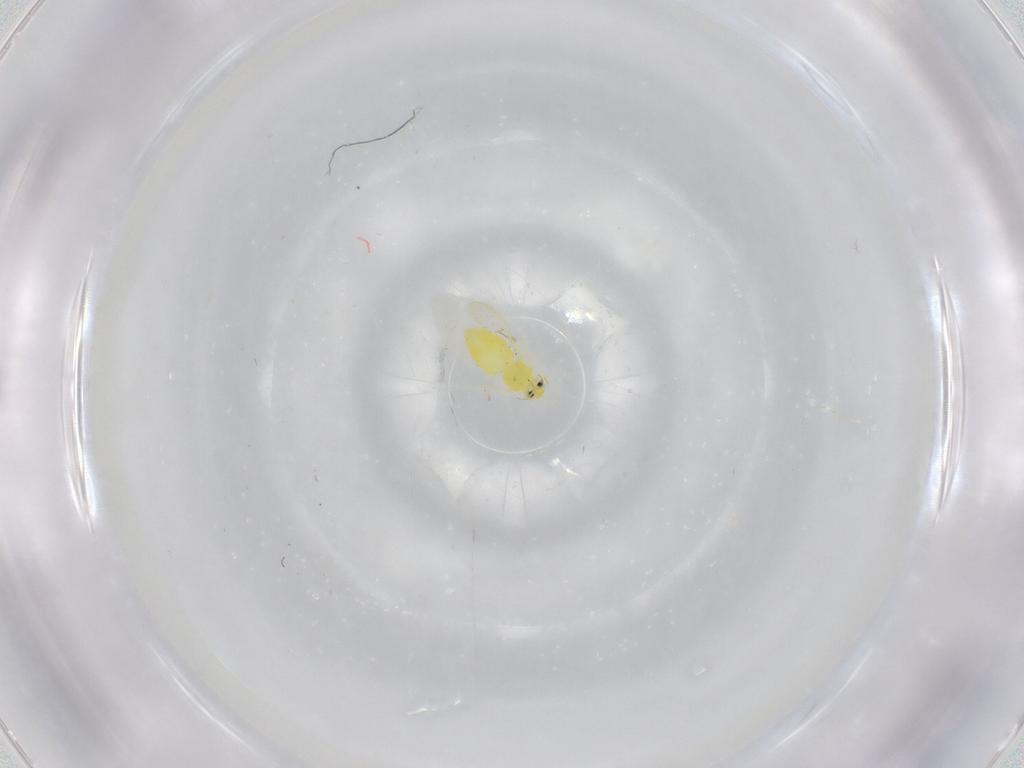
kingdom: Animalia
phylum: Arthropoda
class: Insecta
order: Hemiptera
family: Aleyrodidae
